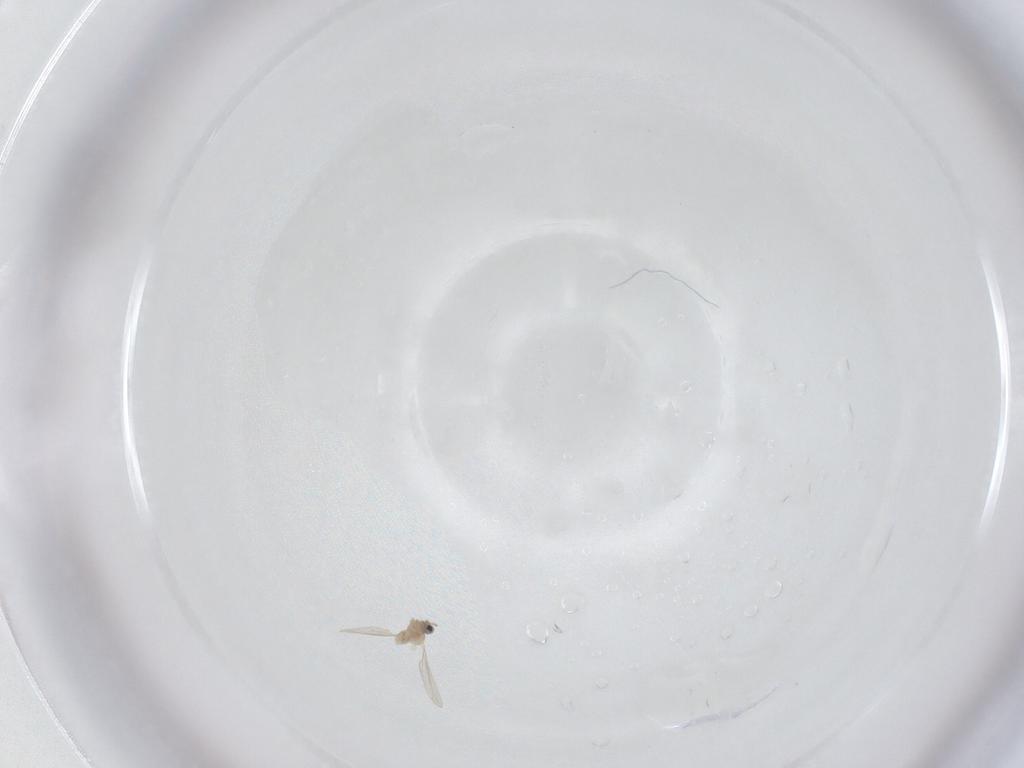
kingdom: Animalia
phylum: Arthropoda
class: Insecta
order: Diptera
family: Cecidomyiidae
